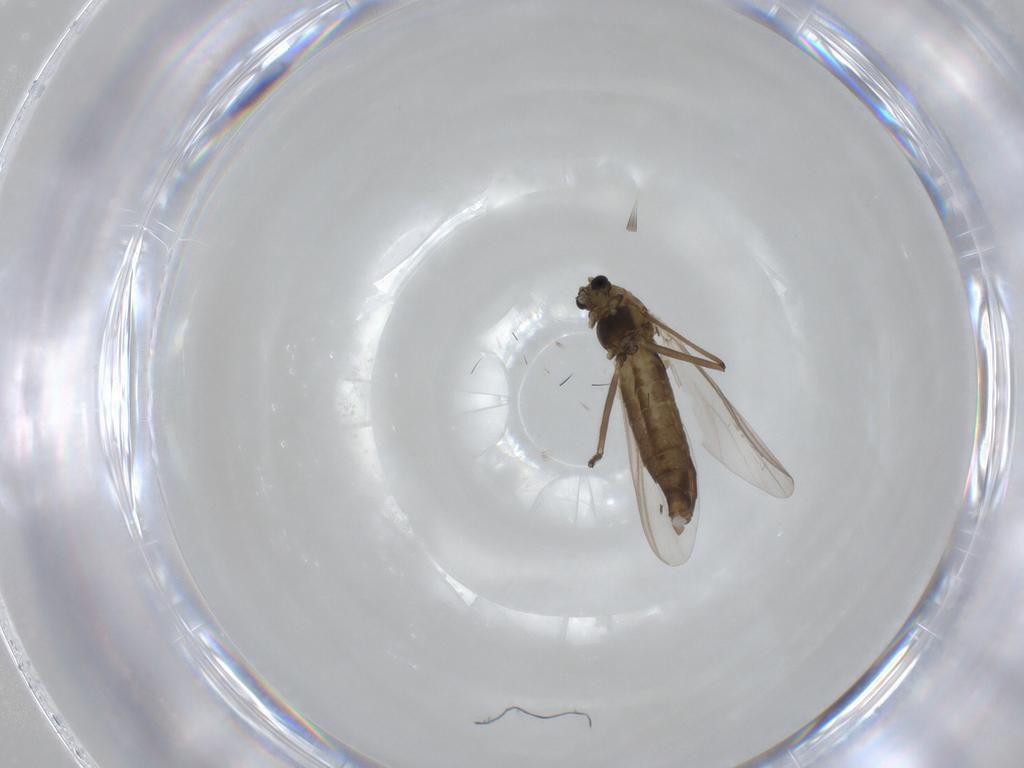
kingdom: Animalia
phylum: Arthropoda
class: Insecta
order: Diptera
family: Chironomidae
